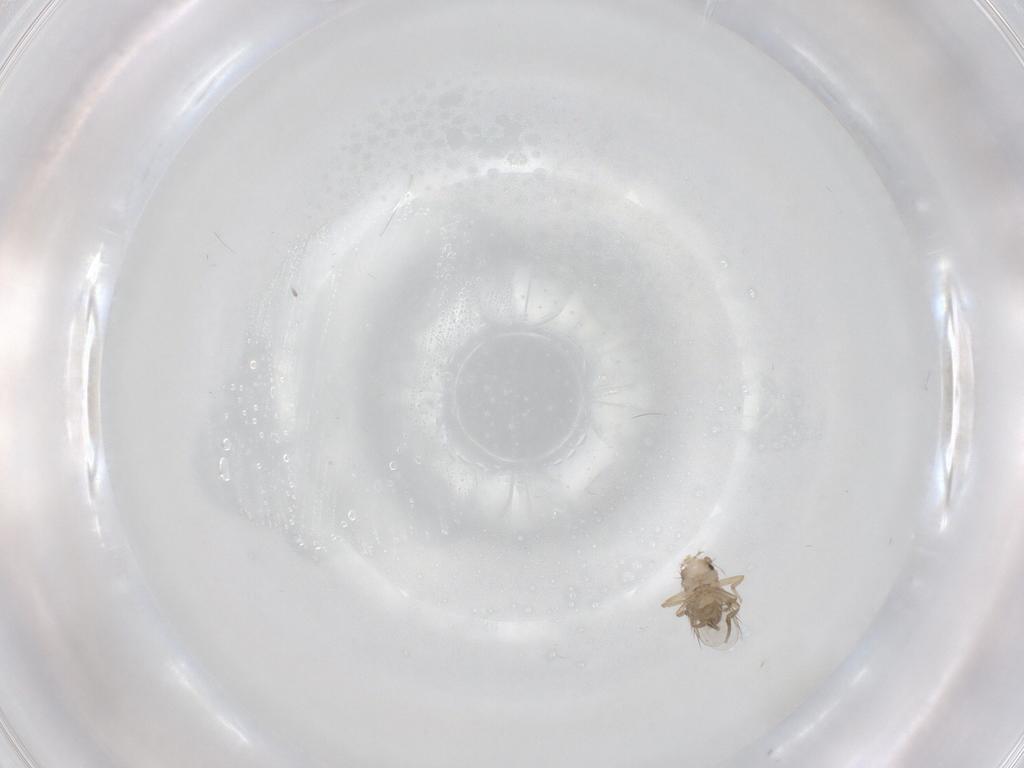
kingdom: Animalia
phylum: Arthropoda
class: Insecta
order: Diptera
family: Phoridae
